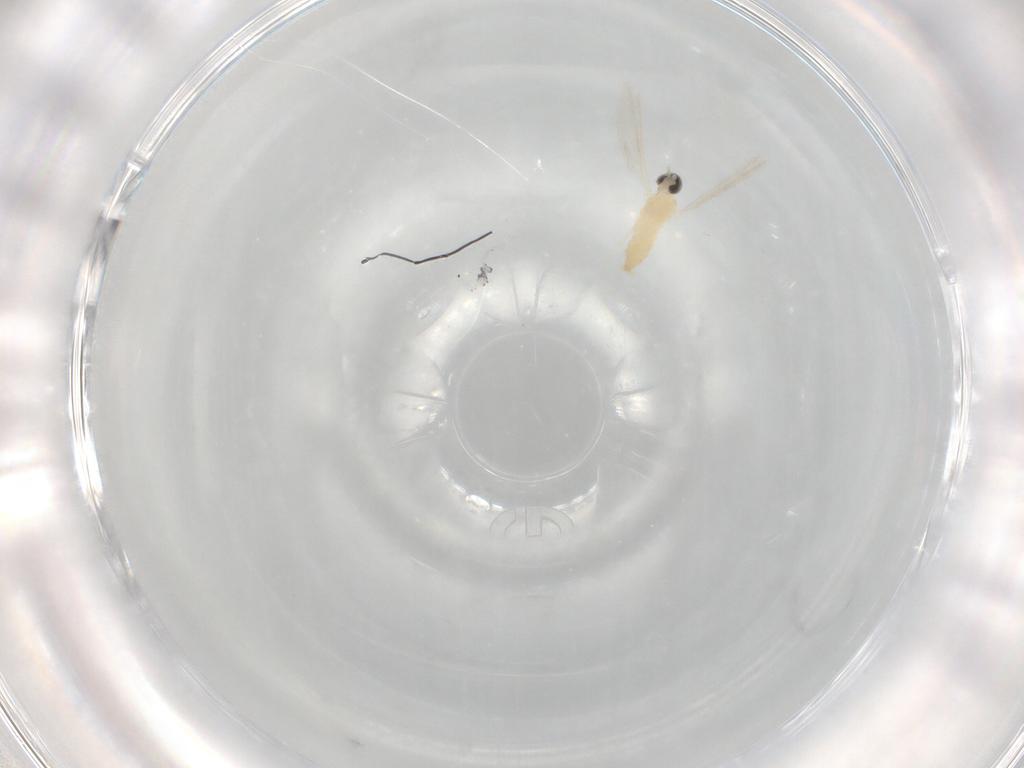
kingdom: Animalia
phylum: Arthropoda
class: Insecta
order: Diptera
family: Cecidomyiidae
